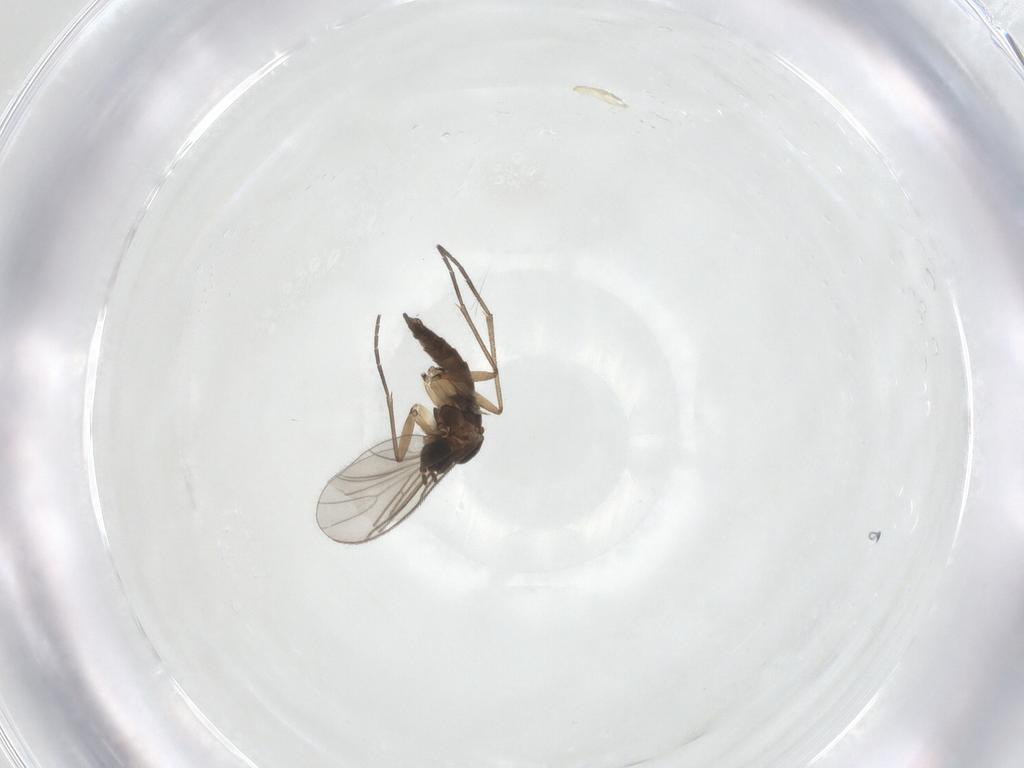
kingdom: Animalia
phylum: Arthropoda
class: Insecta
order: Diptera
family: Sciaridae
